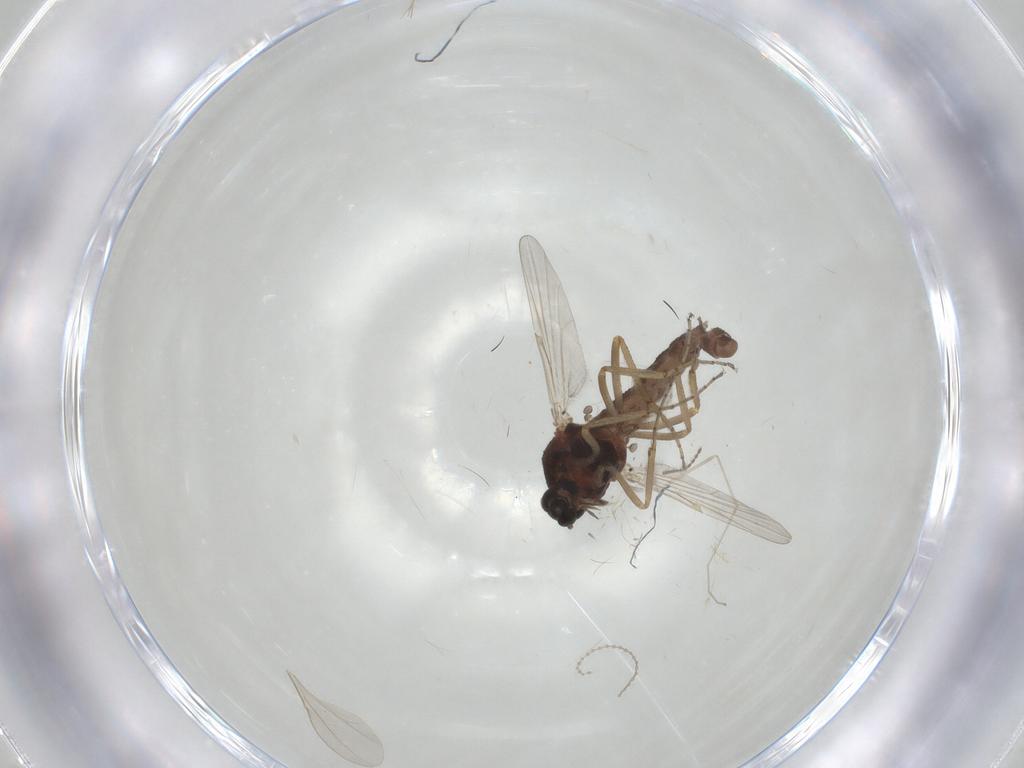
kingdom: Animalia
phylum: Arthropoda
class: Insecta
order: Diptera
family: Ceratopogonidae
